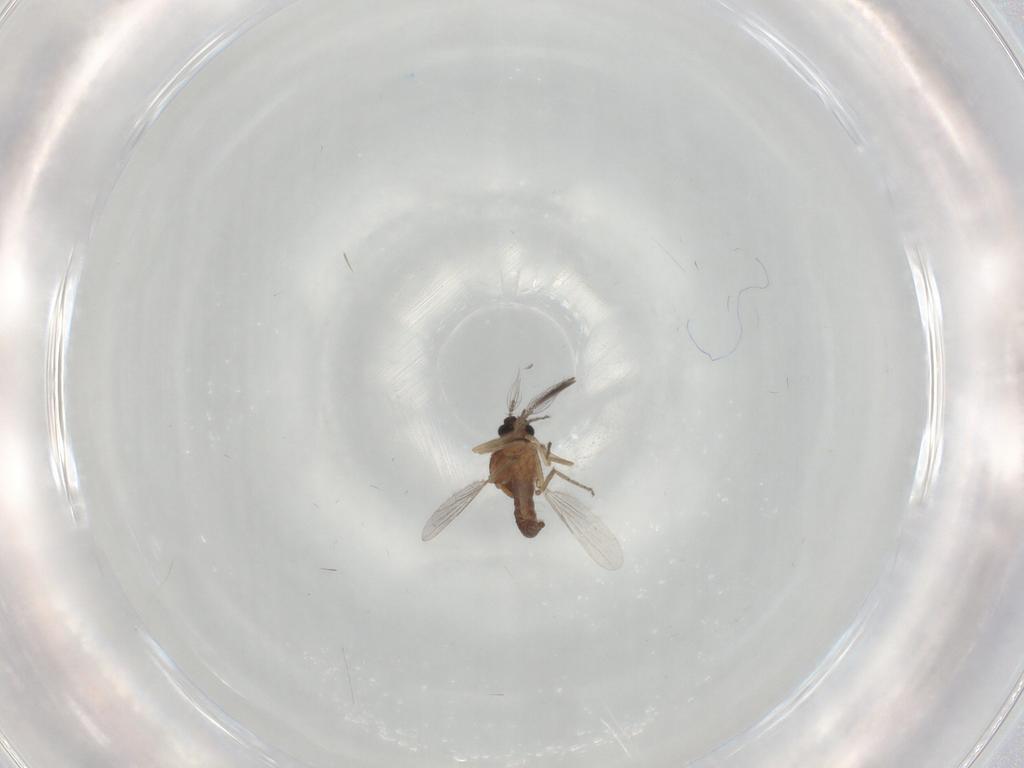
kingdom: Animalia
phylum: Arthropoda
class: Insecta
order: Diptera
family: Ceratopogonidae
